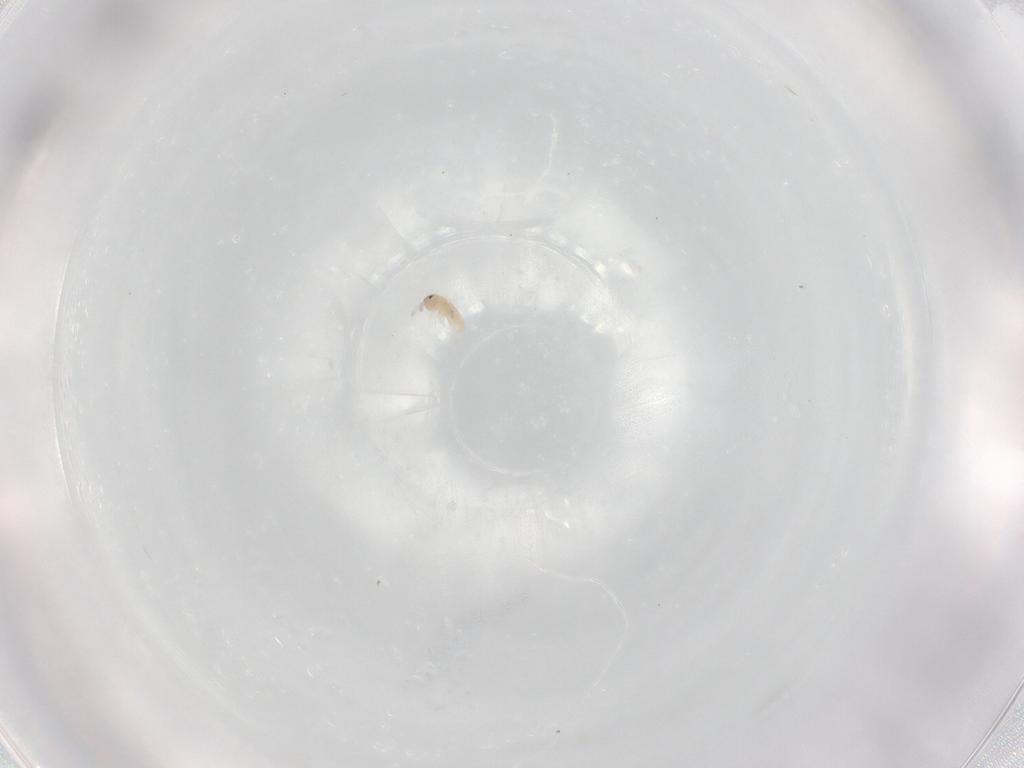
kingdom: Animalia
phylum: Arthropoda
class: Collembola
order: Entomobryomorpha
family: Isotomidae
